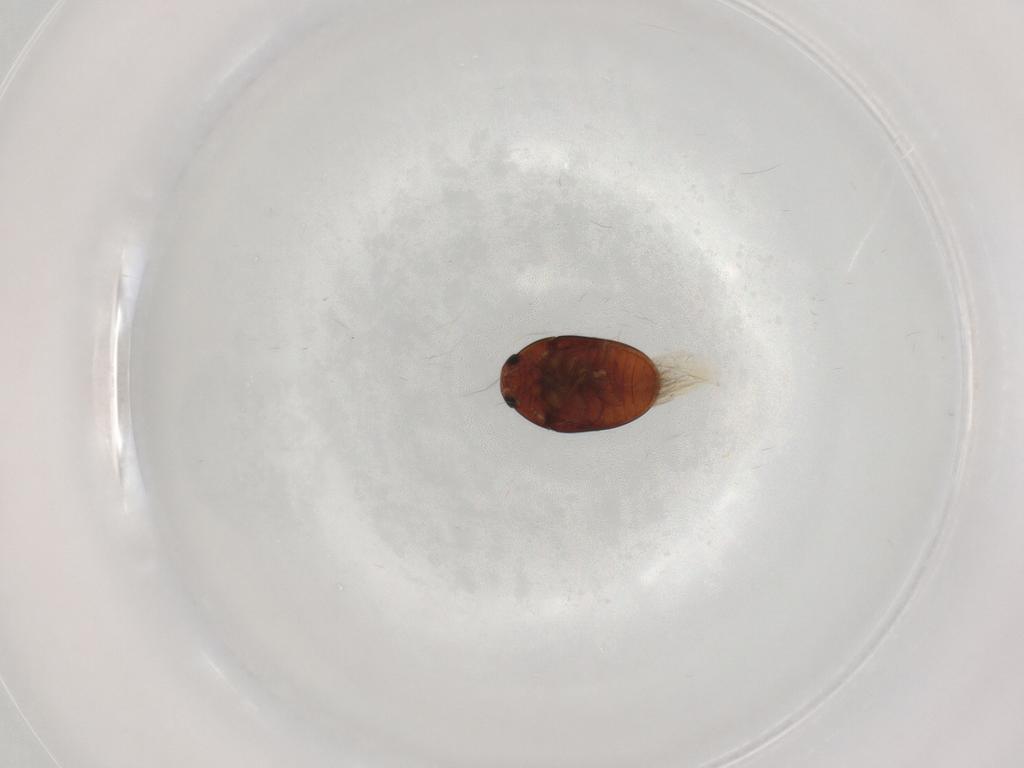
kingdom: Animalia
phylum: Arthropoda
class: Insecta
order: Coleoptera
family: Phalacridae
